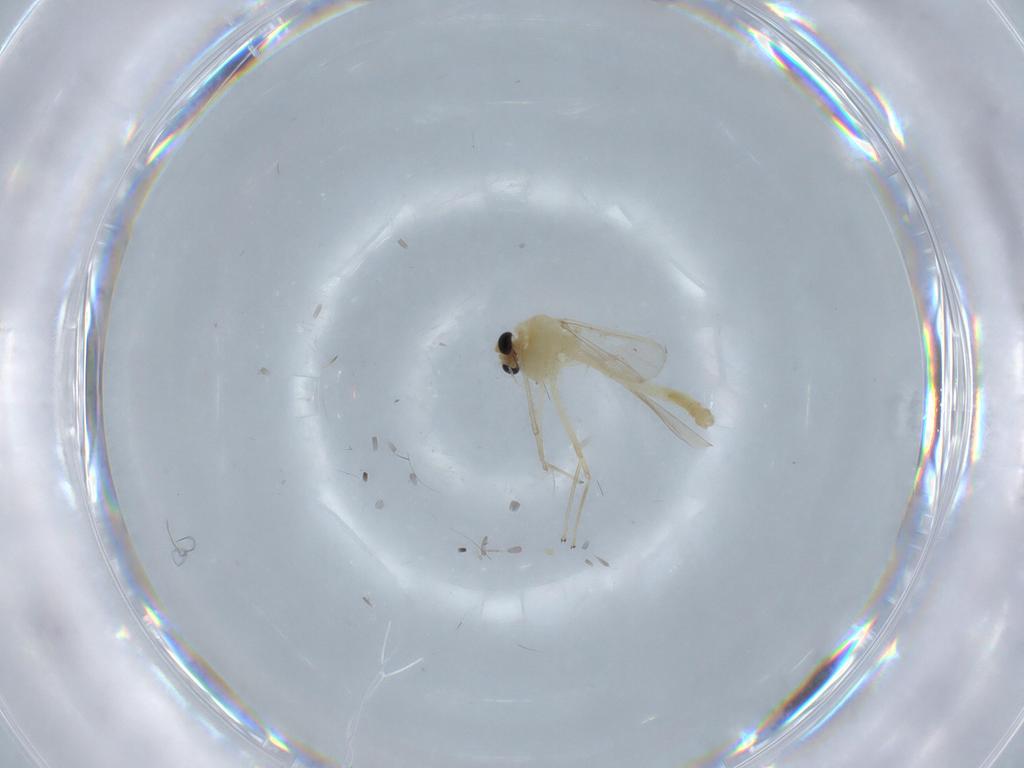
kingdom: Animalia
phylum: Arthropoda
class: Insecta
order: Diptera
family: Chironomidae
